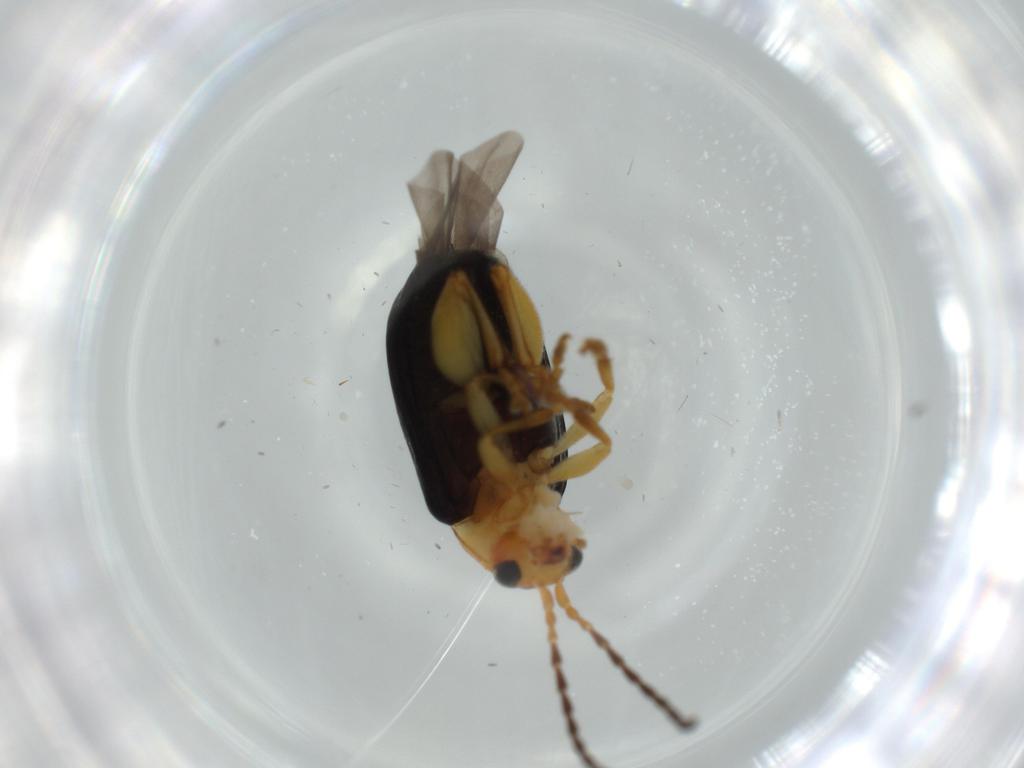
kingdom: Animalia
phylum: Arthropoda
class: Insecta
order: Coleoptera
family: Chrysomelidae
